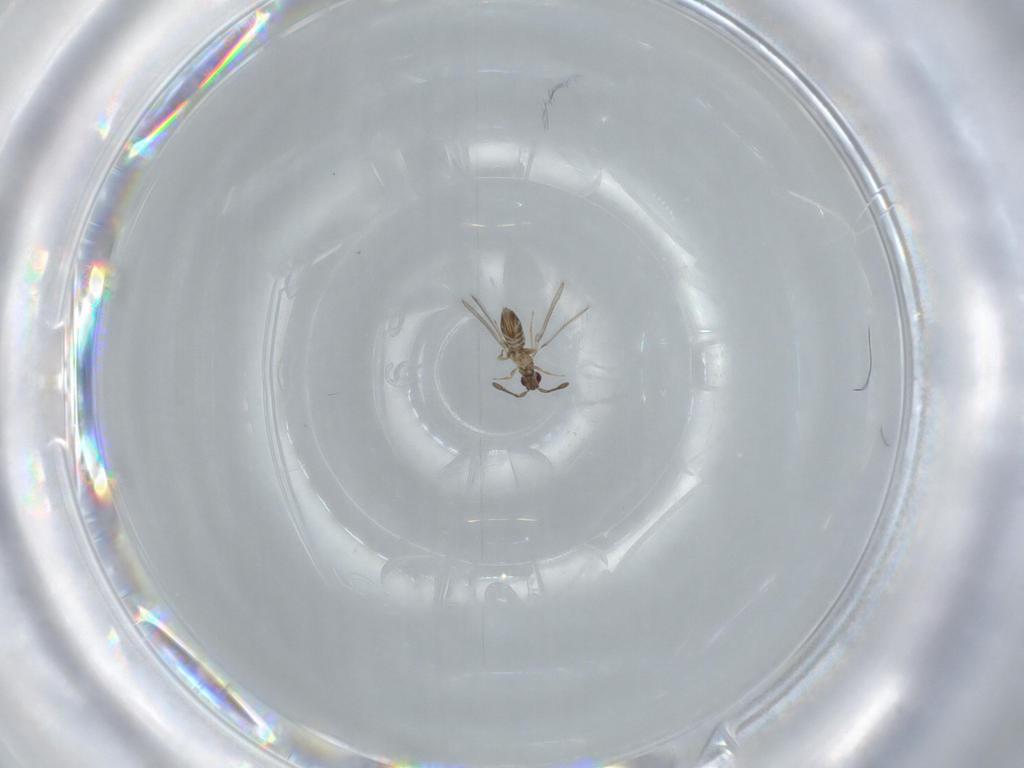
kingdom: Animalia
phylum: Arthropoda
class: Insecta
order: Hymenoptera
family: Mymaridae
